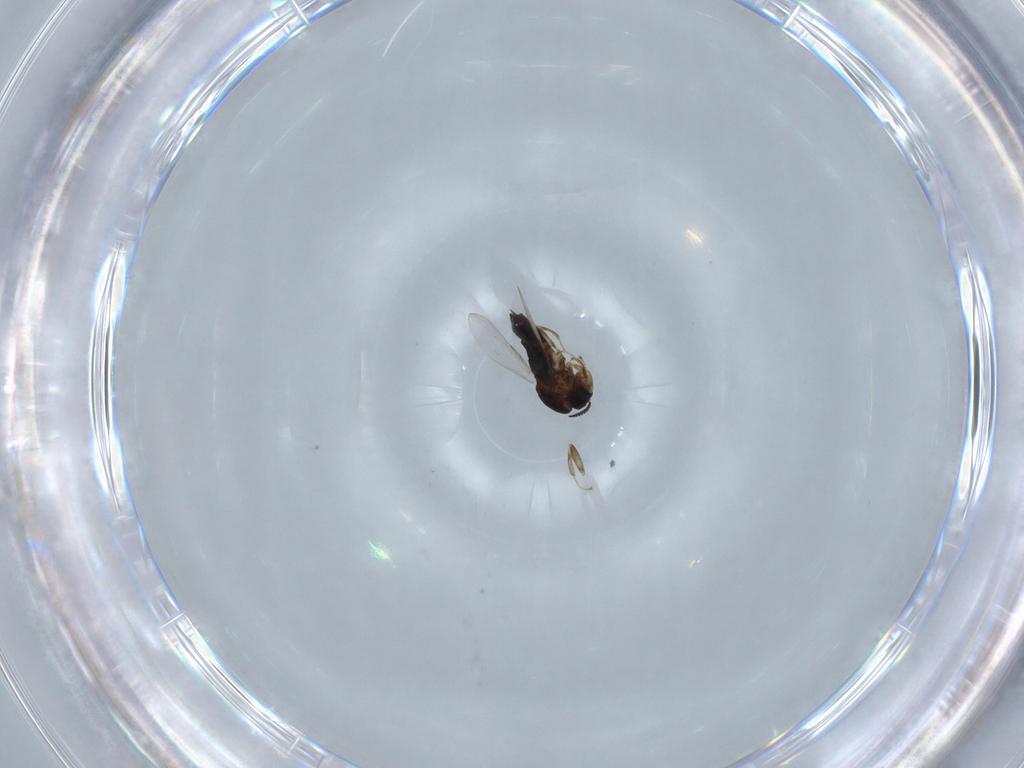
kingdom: Animalia
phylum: Arthropoda
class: Insecta
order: Diptera
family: Scatopsidae
